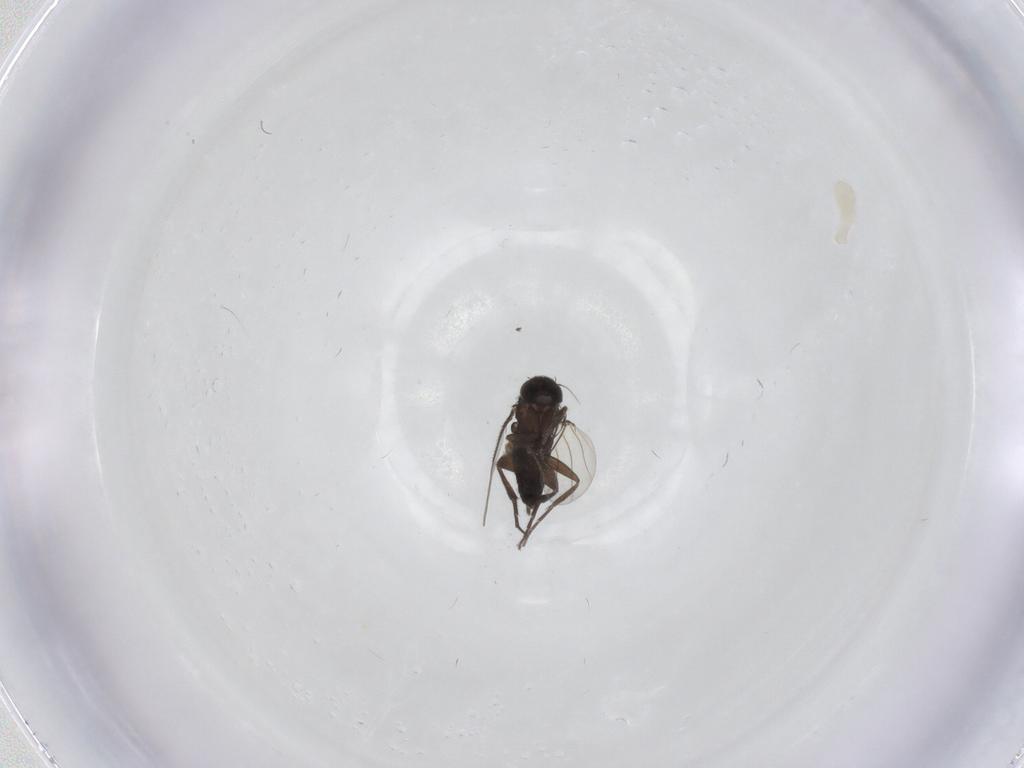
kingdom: Animalia
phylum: Arthropoda
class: Insecta
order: Diptera
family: Phoridae
